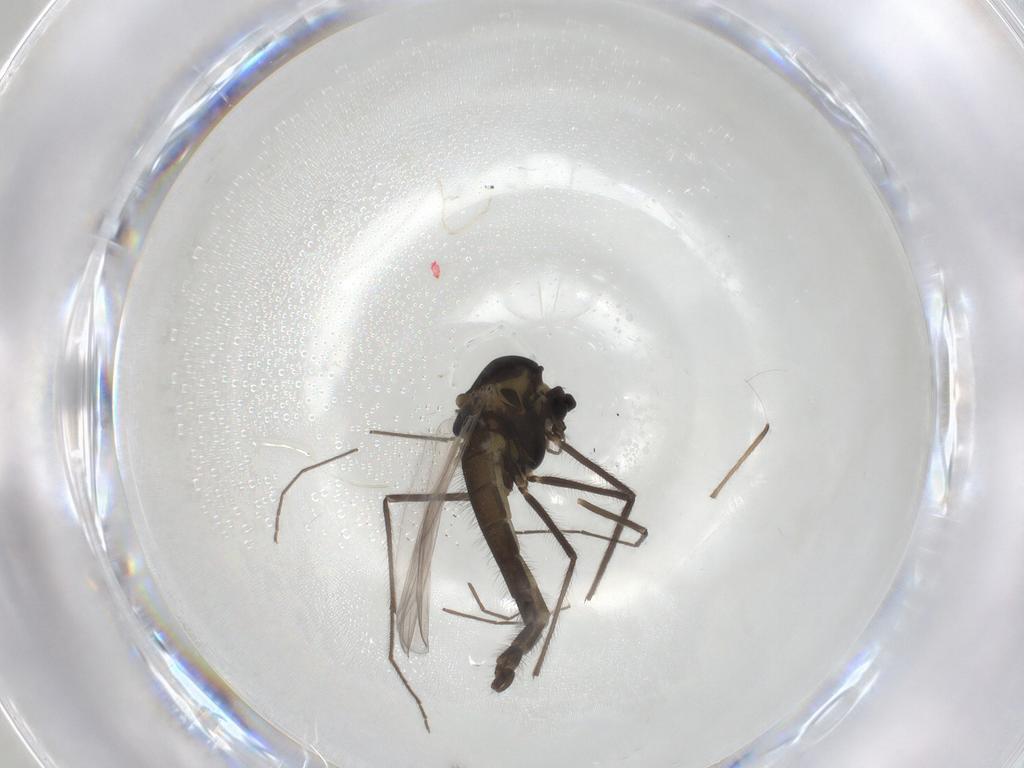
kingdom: Animalia
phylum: Arthropoda
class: Insecta
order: Diptera
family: Chironomidae
